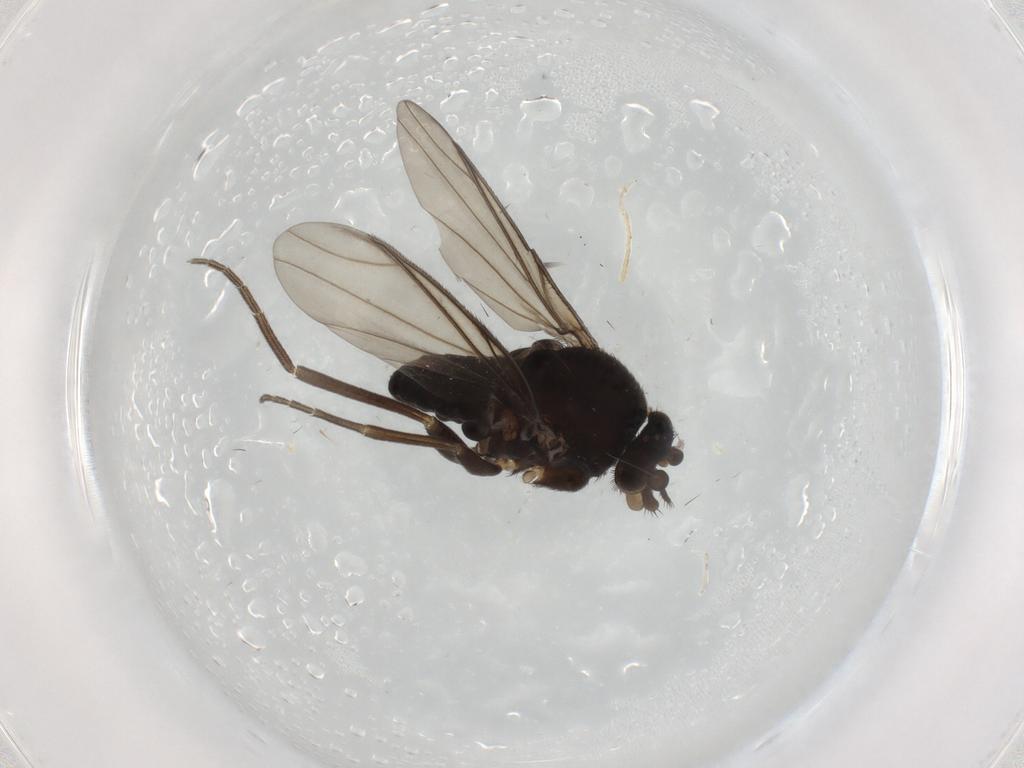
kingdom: Animalia
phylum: Arthropoda
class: Insecta
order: Diptera
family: Phoridae
